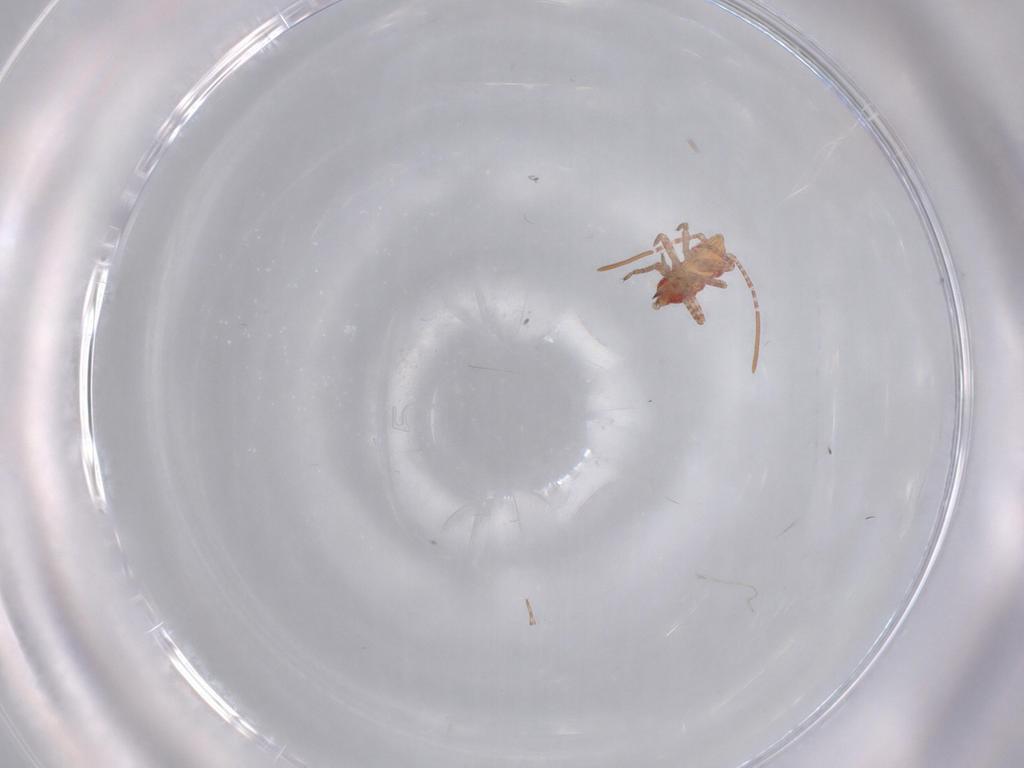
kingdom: Animalia
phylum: Arthropoda
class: Insecta
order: Hemiptera
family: Miridae
